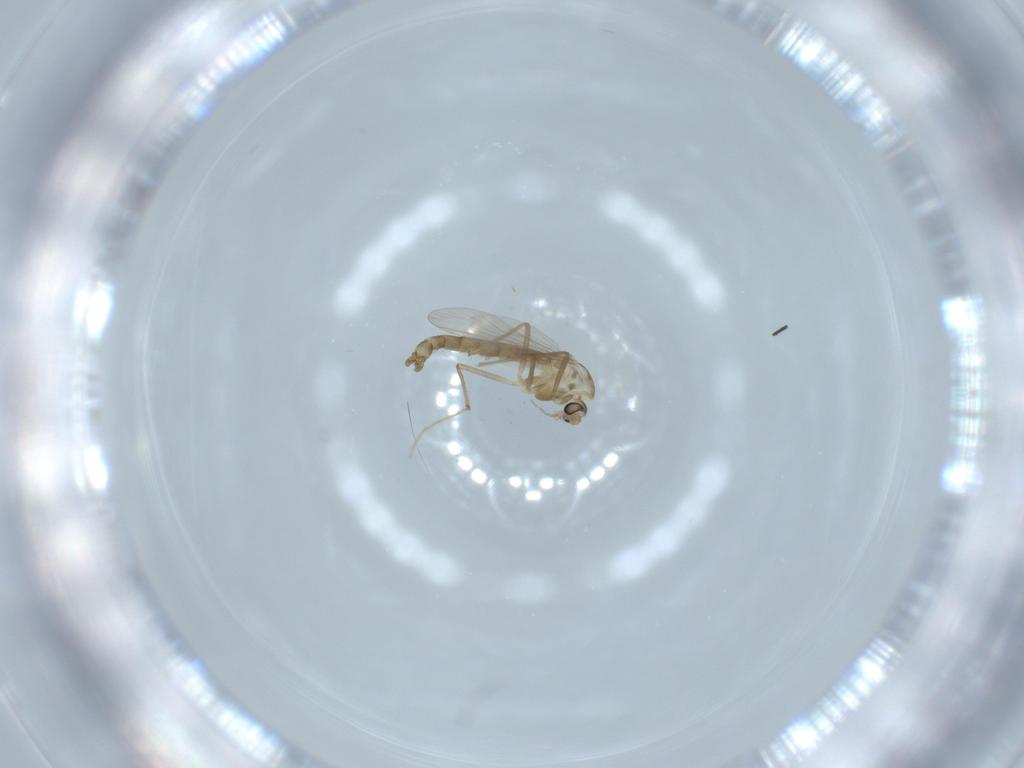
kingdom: Animalia
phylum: Arthropoda
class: Insecta
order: Diptera
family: Chironomidae
